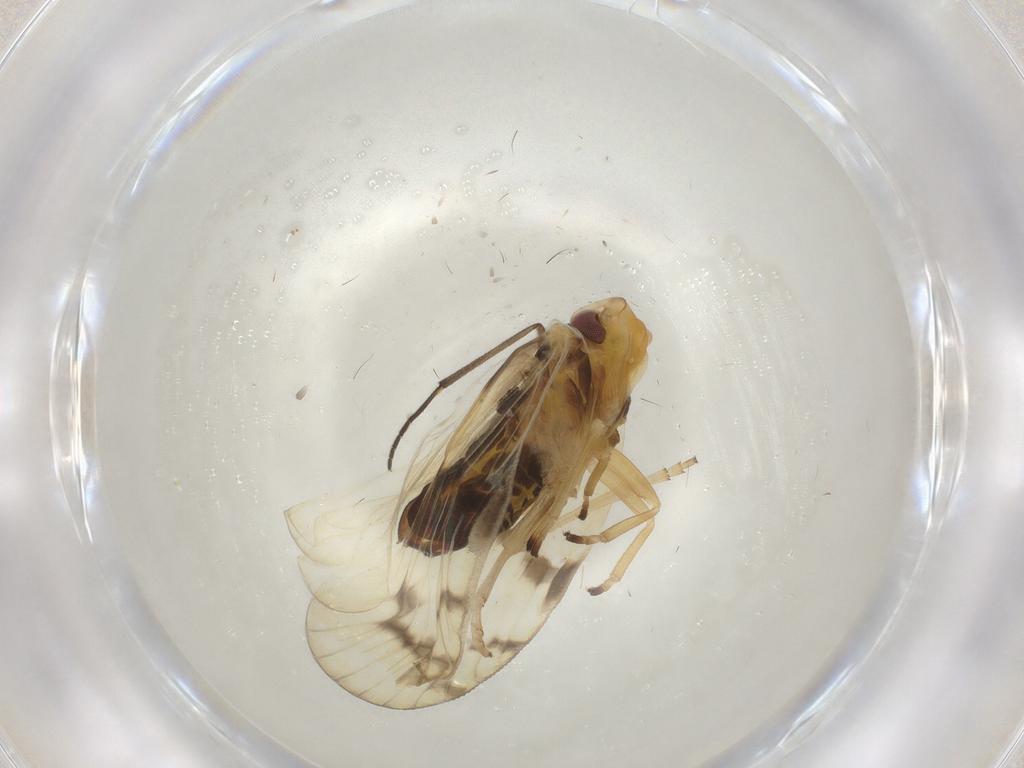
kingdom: Animalia
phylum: Arthropoda
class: Insecta
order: Hemiptera
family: Cixiidae
